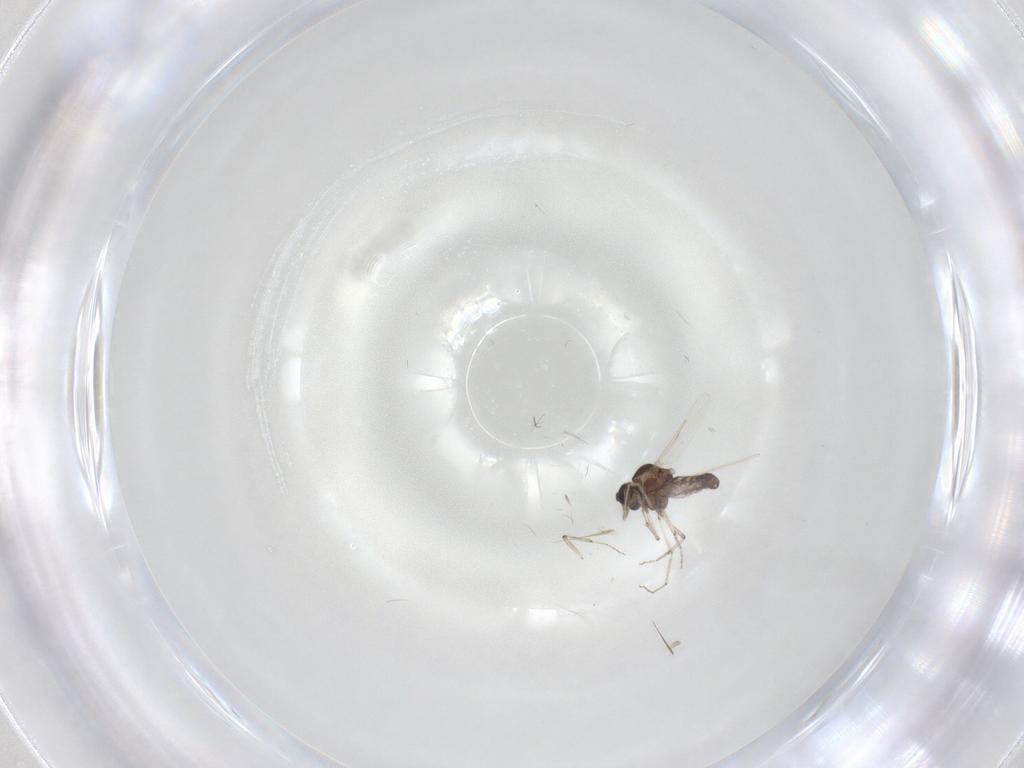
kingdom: Animalia
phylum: Arthropoda
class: Insecta
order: Diptera
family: Ceratopogonidae
